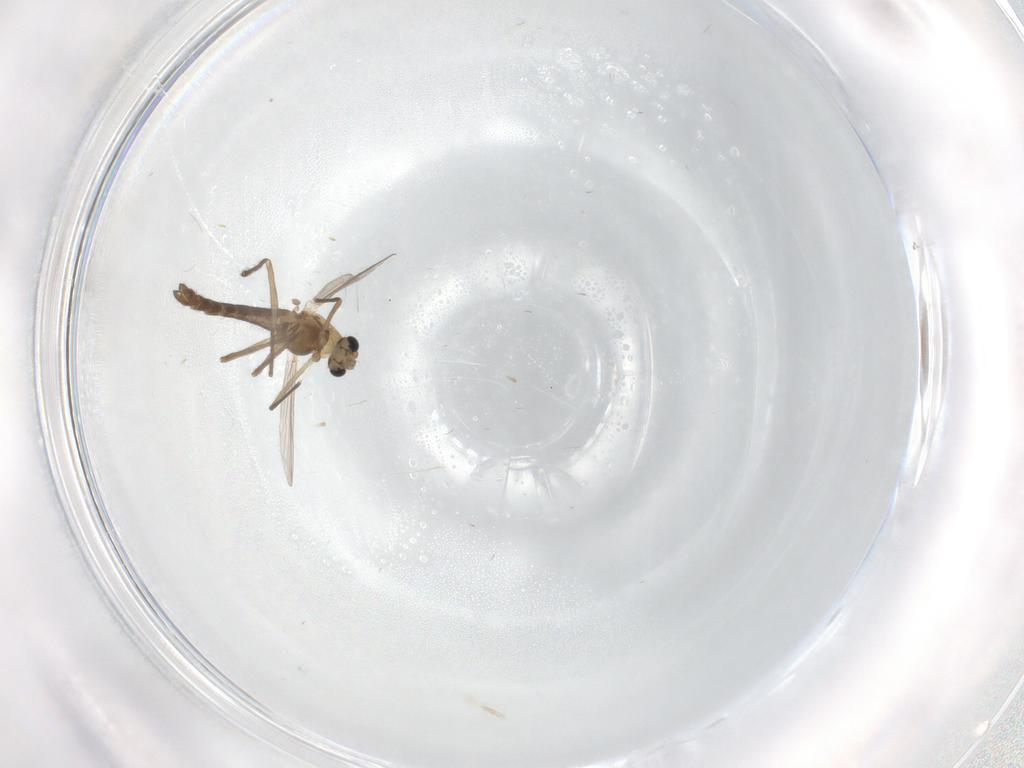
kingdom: Animalia
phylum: Arthropoda
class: Insecta
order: Diptera
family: Chironomidae
